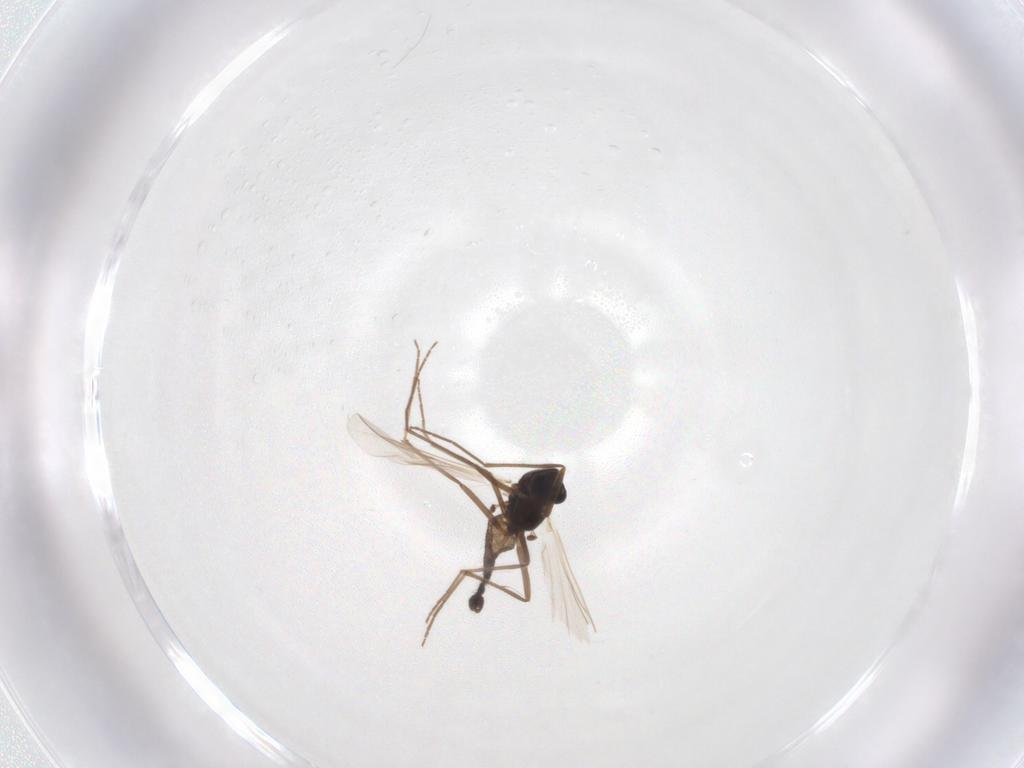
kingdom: Animalia
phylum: Arthropoda
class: Insecta
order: Diptera
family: Chironomidae
